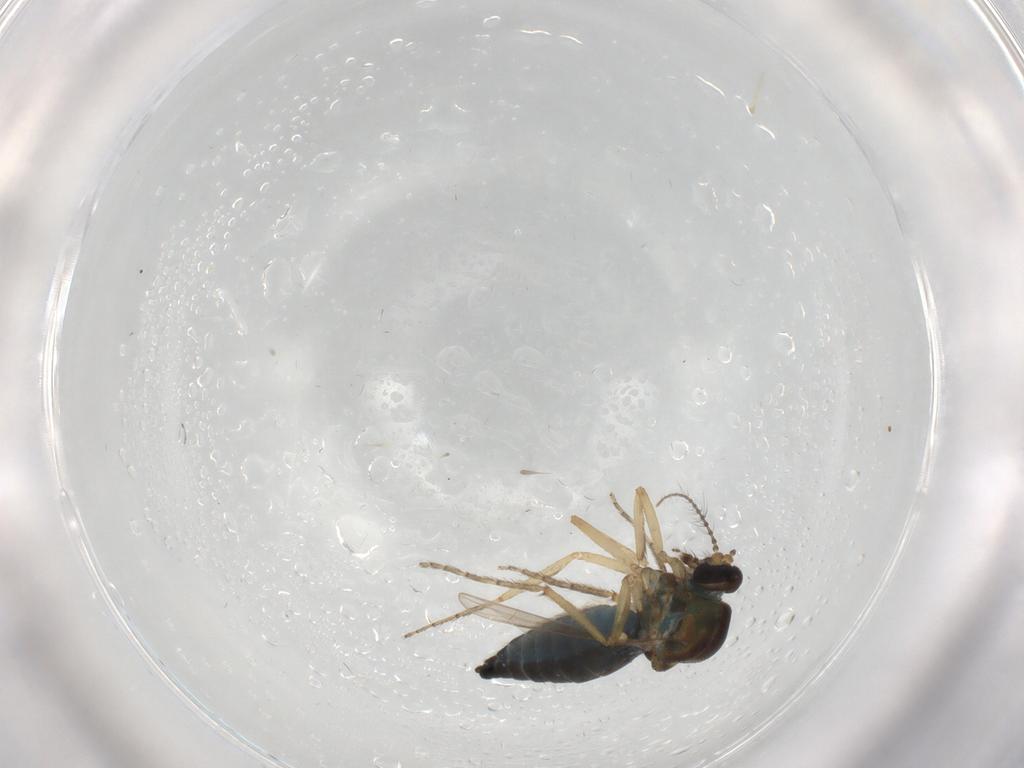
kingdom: Animalia
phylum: Arthropoda
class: Insecta
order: Diptera
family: Ceratopogonidae
